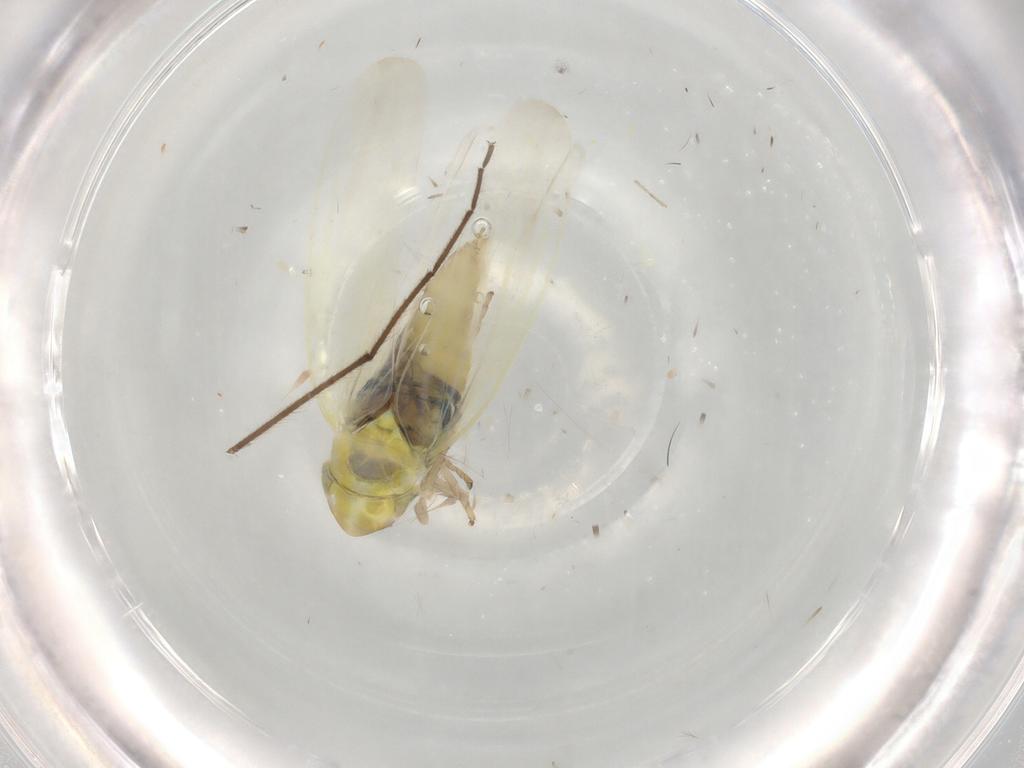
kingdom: Animalia
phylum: Arthropoda
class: Insecta
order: Hemiptera
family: Cicadellidae
